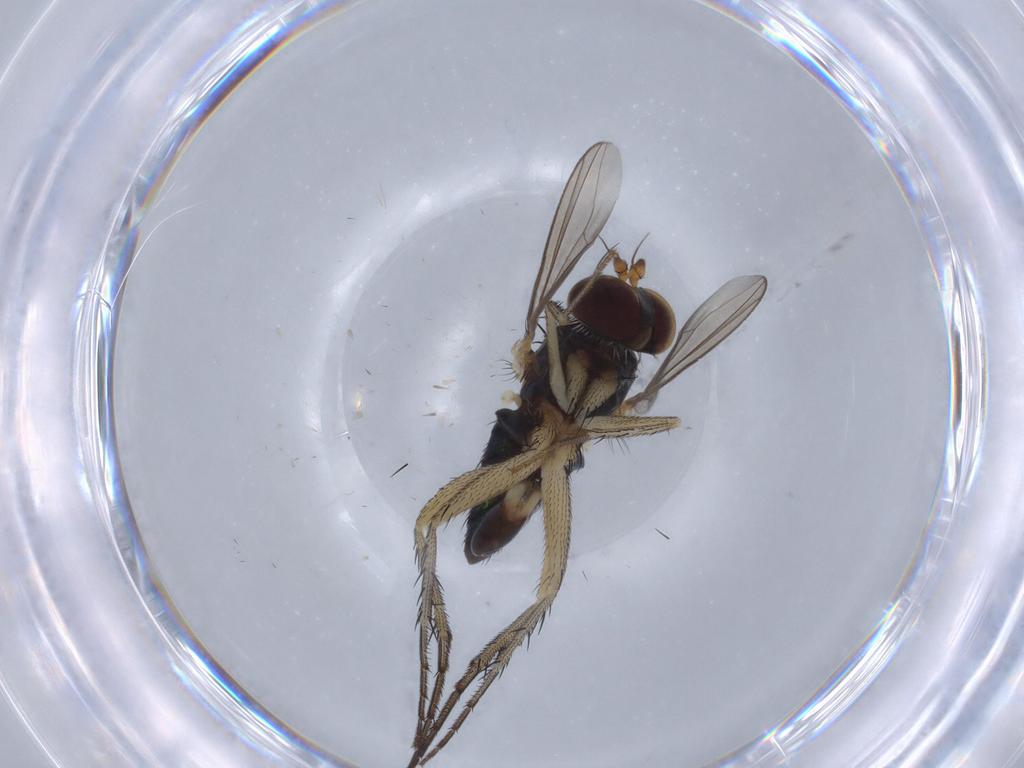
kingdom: Animalia
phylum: Arthropoda
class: Insecta
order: Diptera
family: Dolichopodidae
